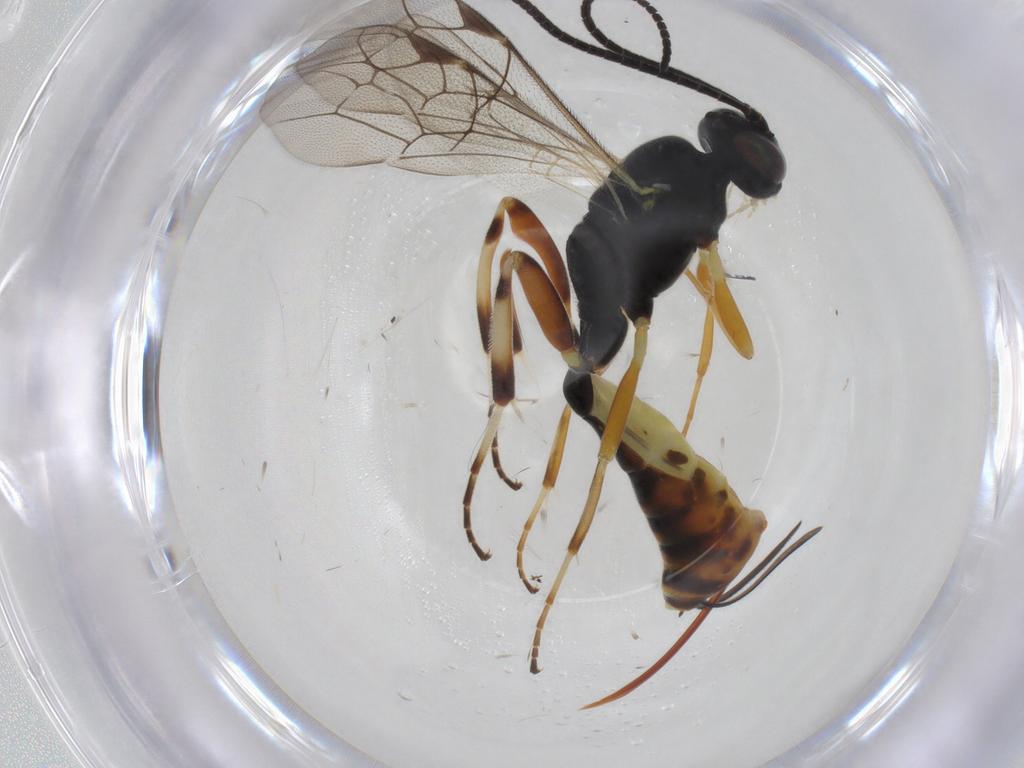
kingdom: Animalia
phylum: Arthropoda
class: Insecta
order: Hymenoptera
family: Ichneumonidae
